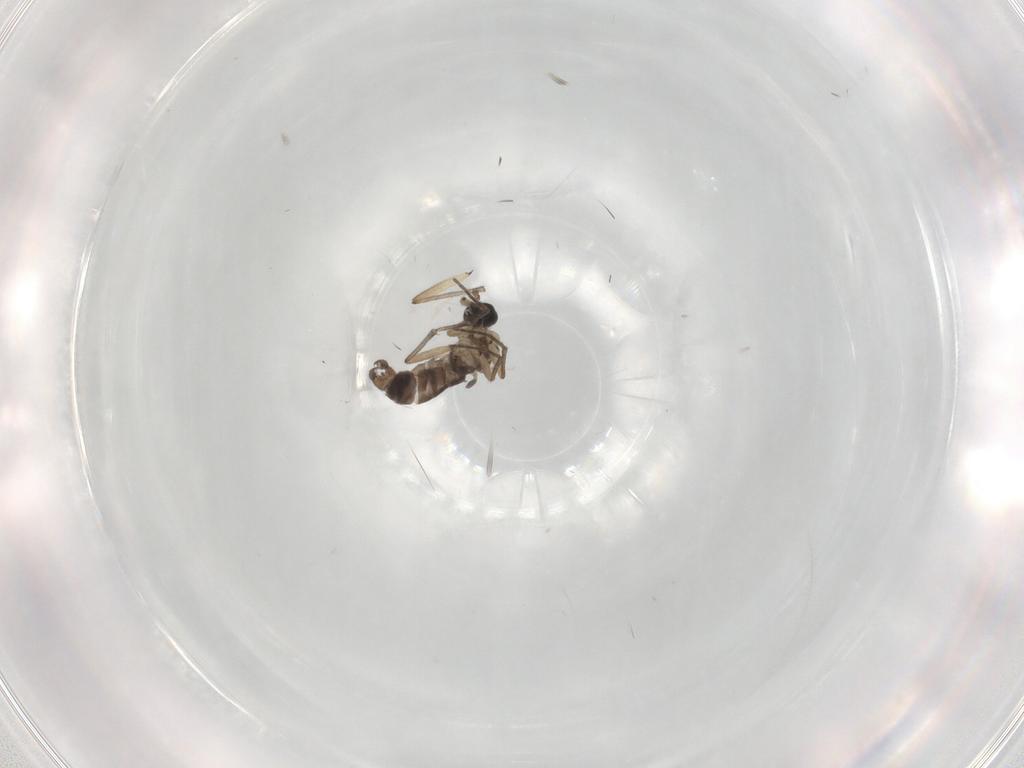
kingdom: Animalia
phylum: Arthropoda
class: Insecta
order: Diptera
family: Sciaridae
